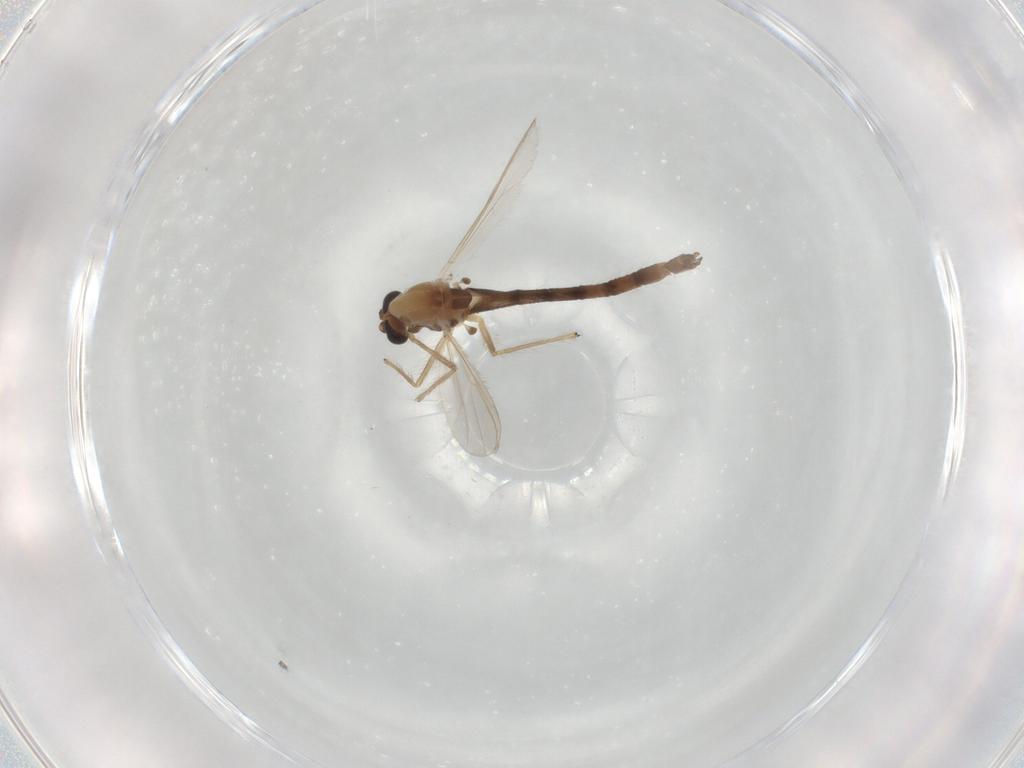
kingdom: Animalia
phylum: Arthropoda
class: Insecta
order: Diptera
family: Chironomidae
